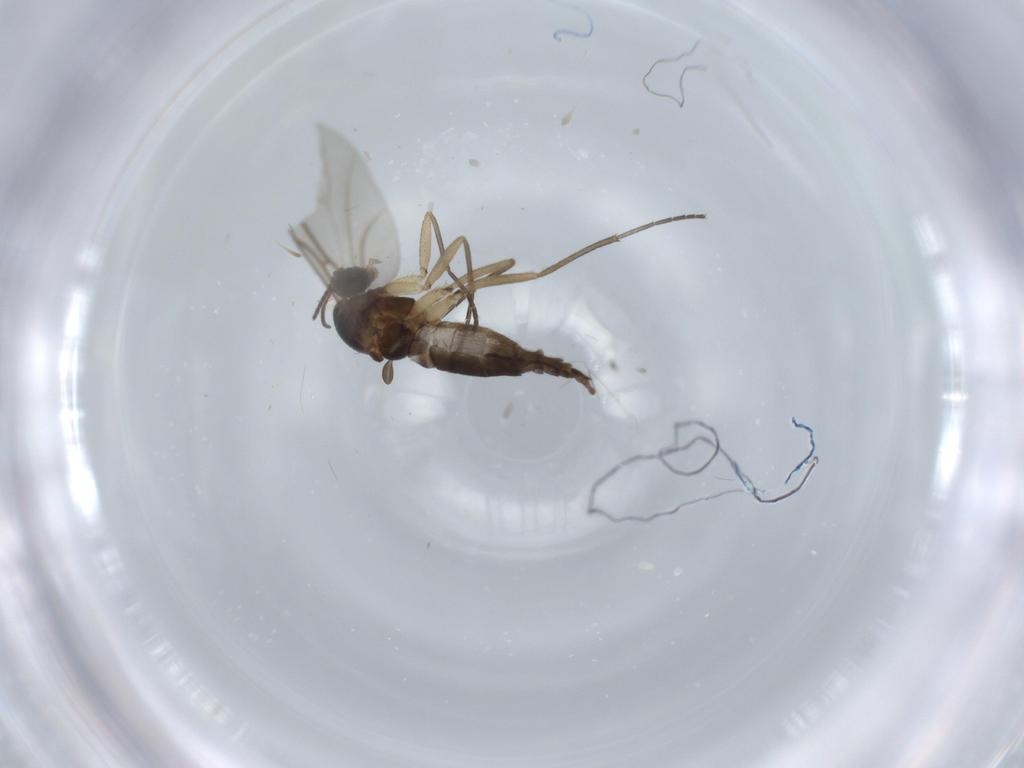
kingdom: Animalia
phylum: Arthropoda
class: Insecta
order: Diptera
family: Sciaridae
